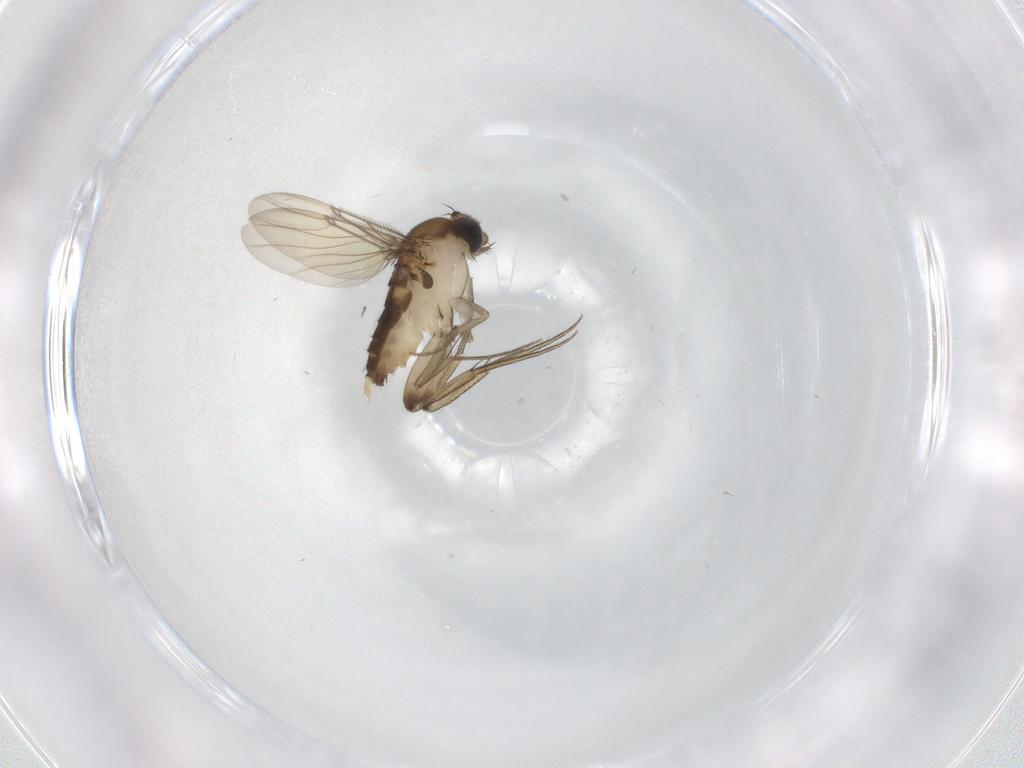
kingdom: Animalia
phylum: Arthropoda
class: Insecta
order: Diptera
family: Phoridae
